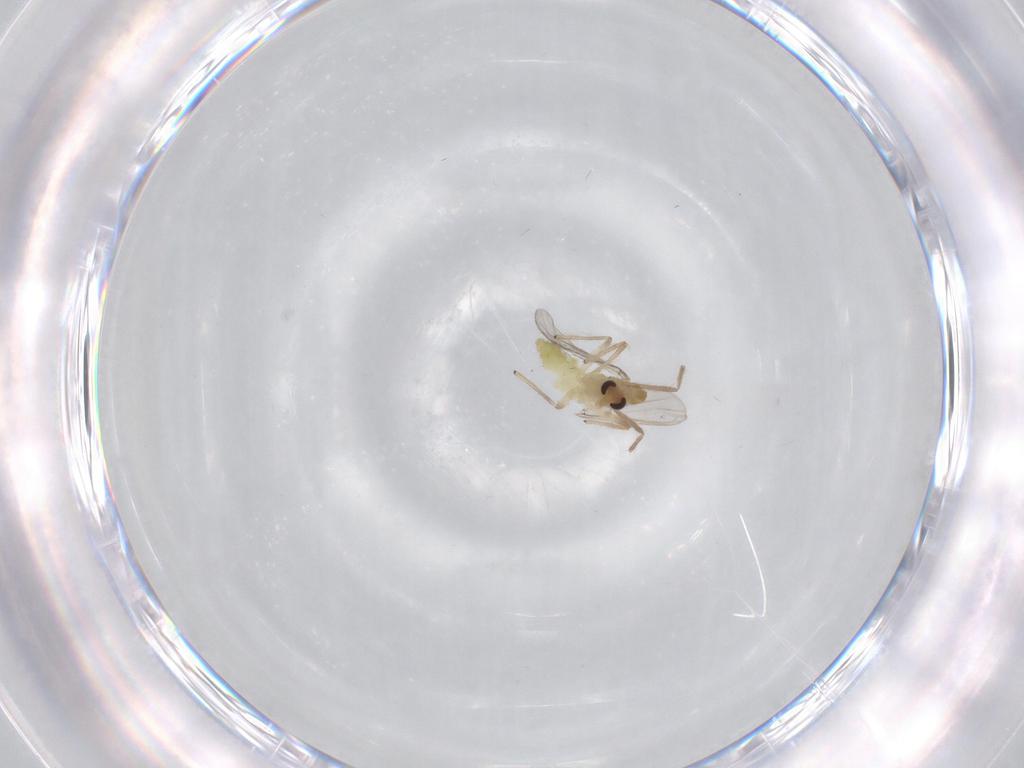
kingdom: Animalia
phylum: Arthropoda
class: Insecta
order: Diptera
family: Chironomidae
